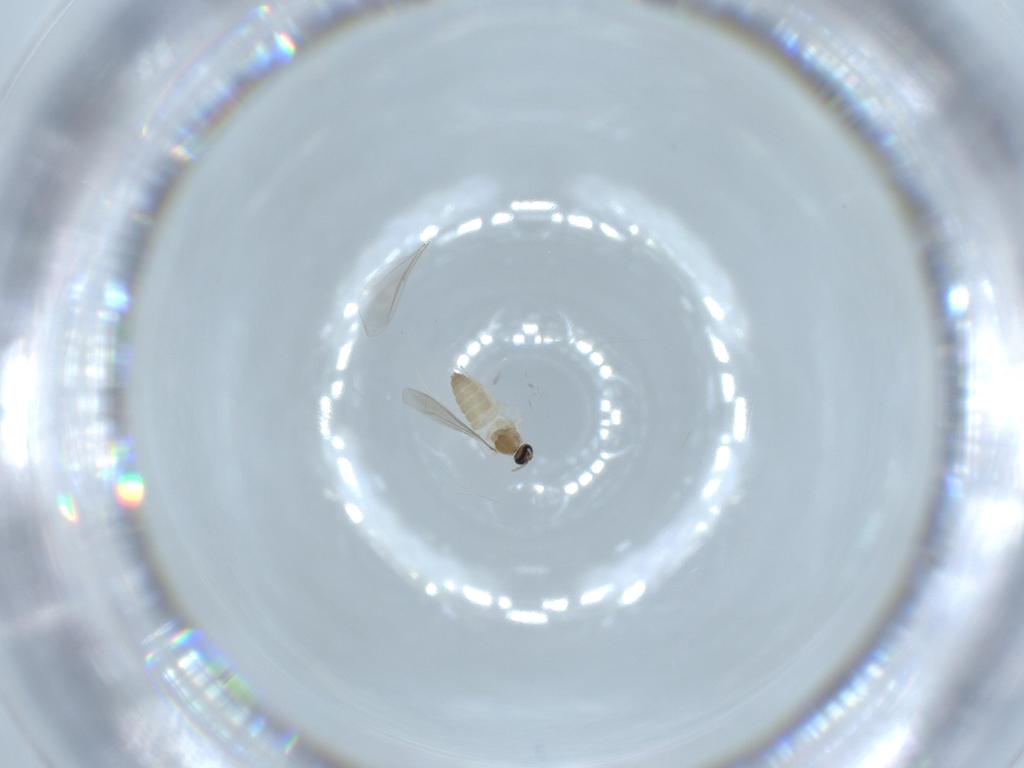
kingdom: Animalia
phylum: Arthropoda
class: Insecta
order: Diptera
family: Cecidomyiidae
